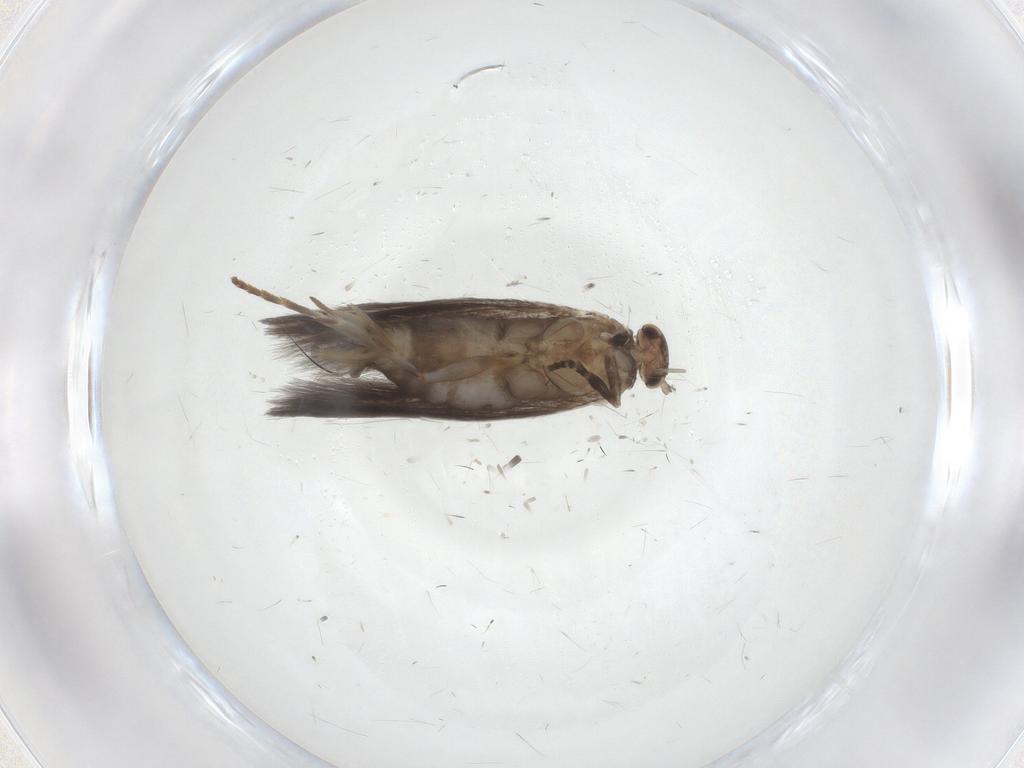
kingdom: Animalia
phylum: Arthropoda
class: Insecta
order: Lepidoptera
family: Elachistidae
